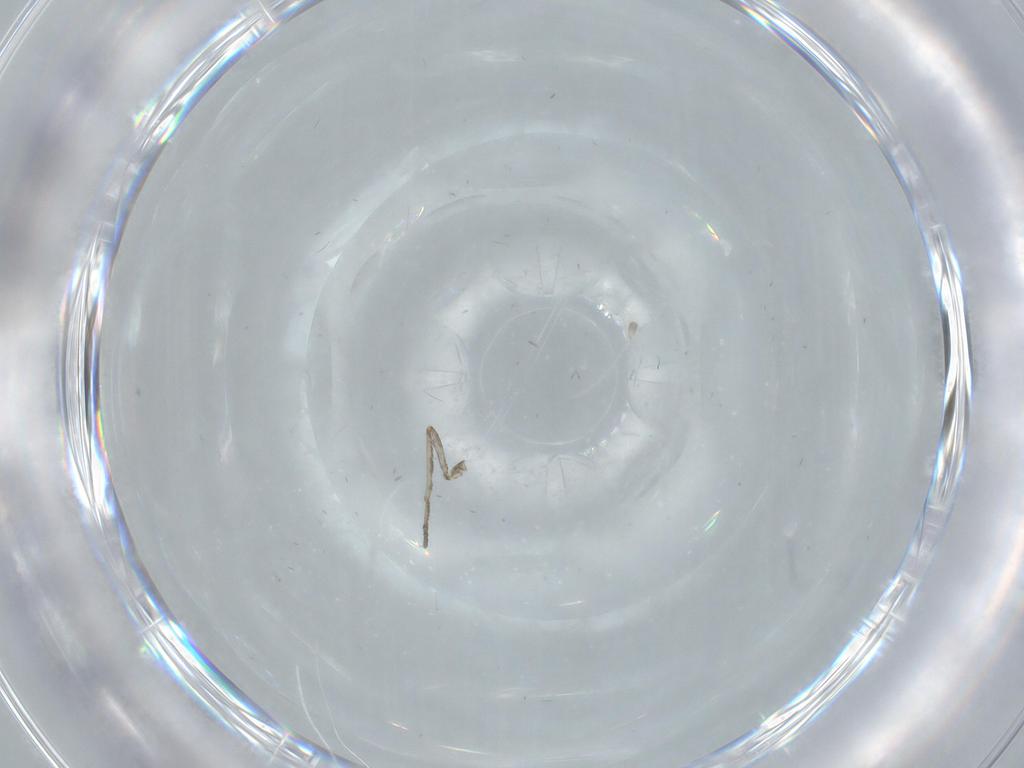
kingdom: Animalia
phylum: Arthropoda
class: Insecta
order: Diptera
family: Psychodidae
